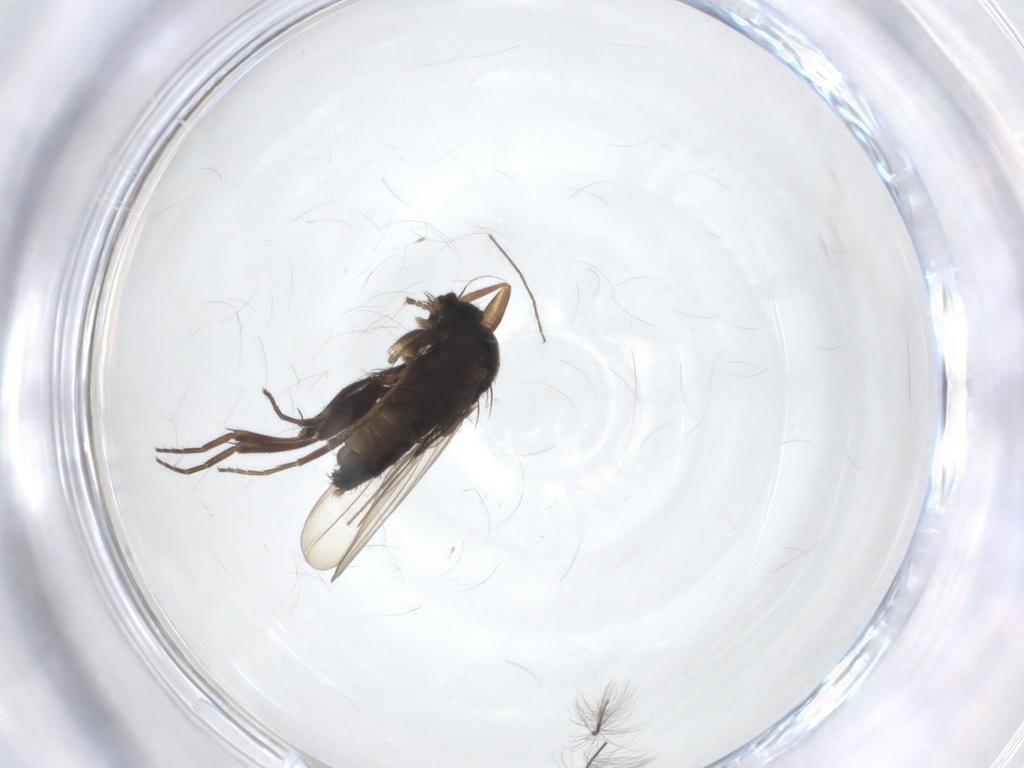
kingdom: Animalia
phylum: Arthropoda
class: Insecta
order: Diptera
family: Phoridae
